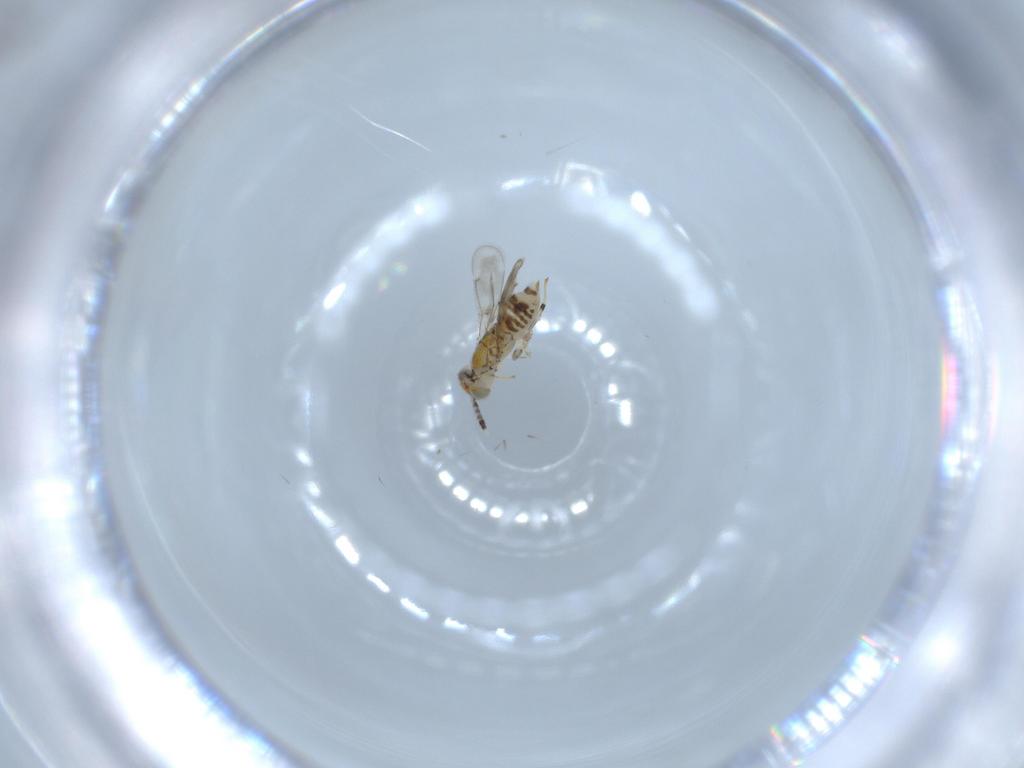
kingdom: Animalia
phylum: Arthropoda
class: Insecta
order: Hymenoptera
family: Aphelinidae
